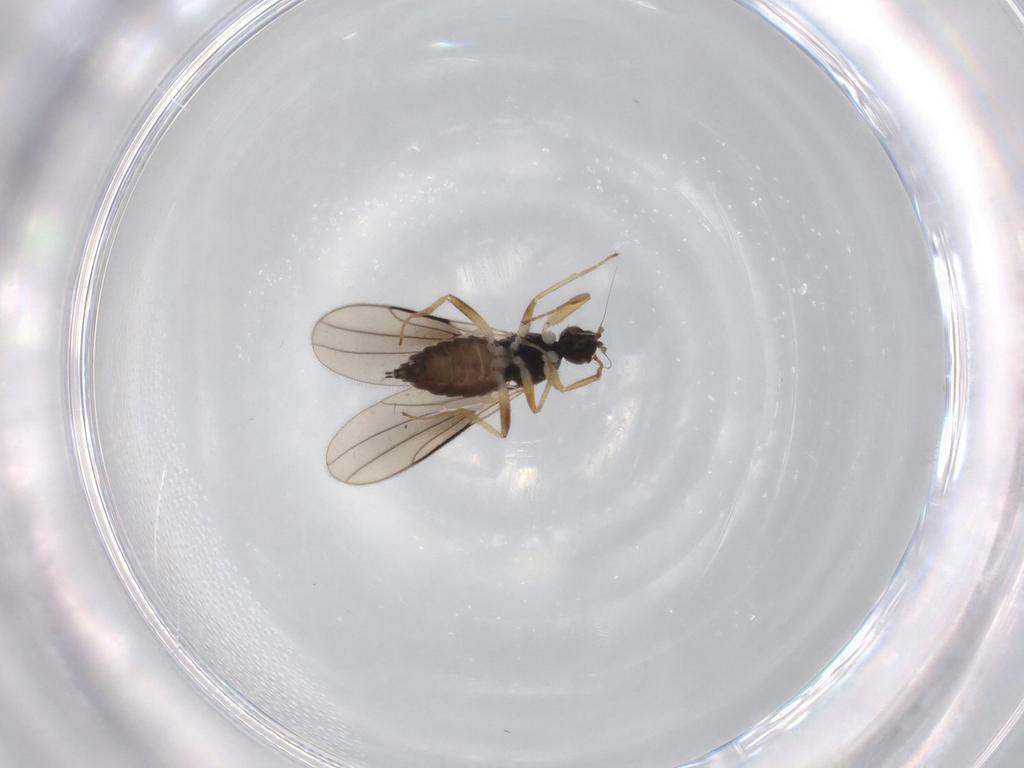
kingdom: Animalia
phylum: Arthropoda
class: Insecta
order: Diptera
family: Hybotidae
